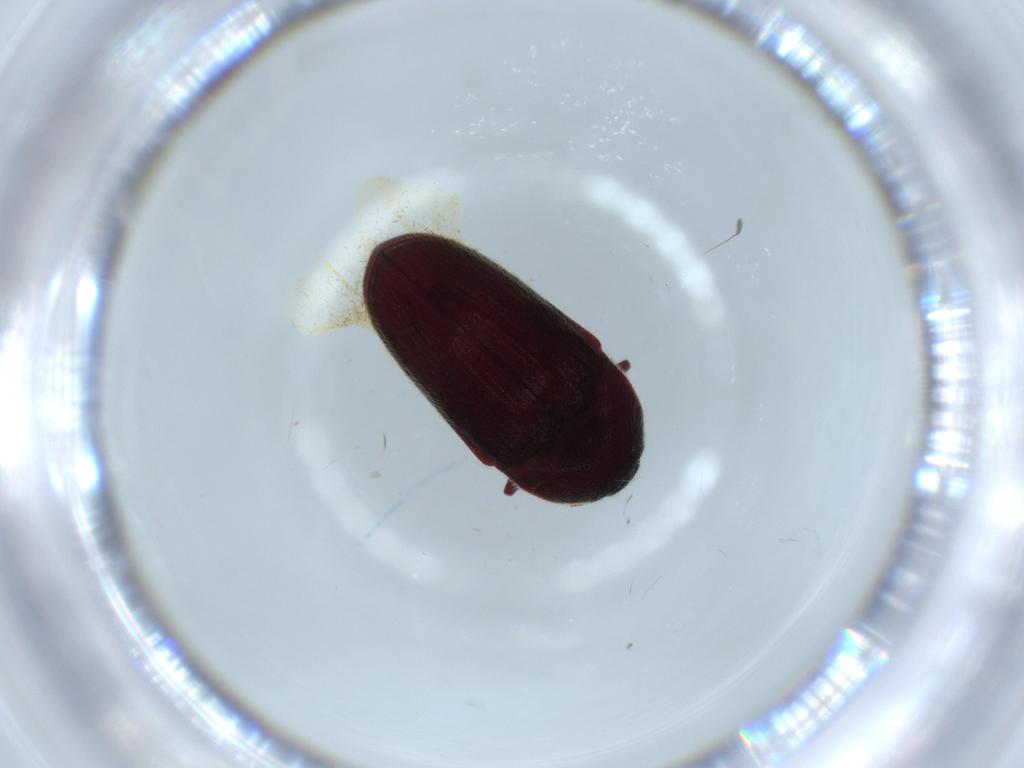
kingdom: Animalia
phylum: Arthropoda
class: Insecta
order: Coleoptera
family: Throscidae
